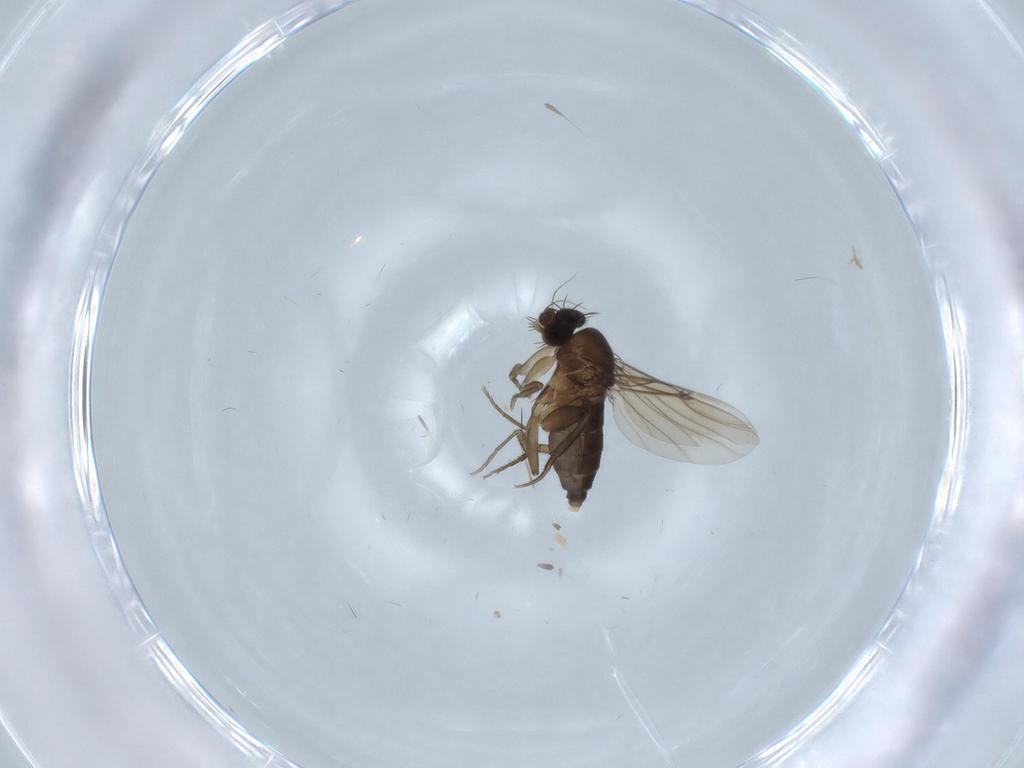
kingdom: Animalia
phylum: Arthropoda
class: Insecta
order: Diptera
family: Phoridae
